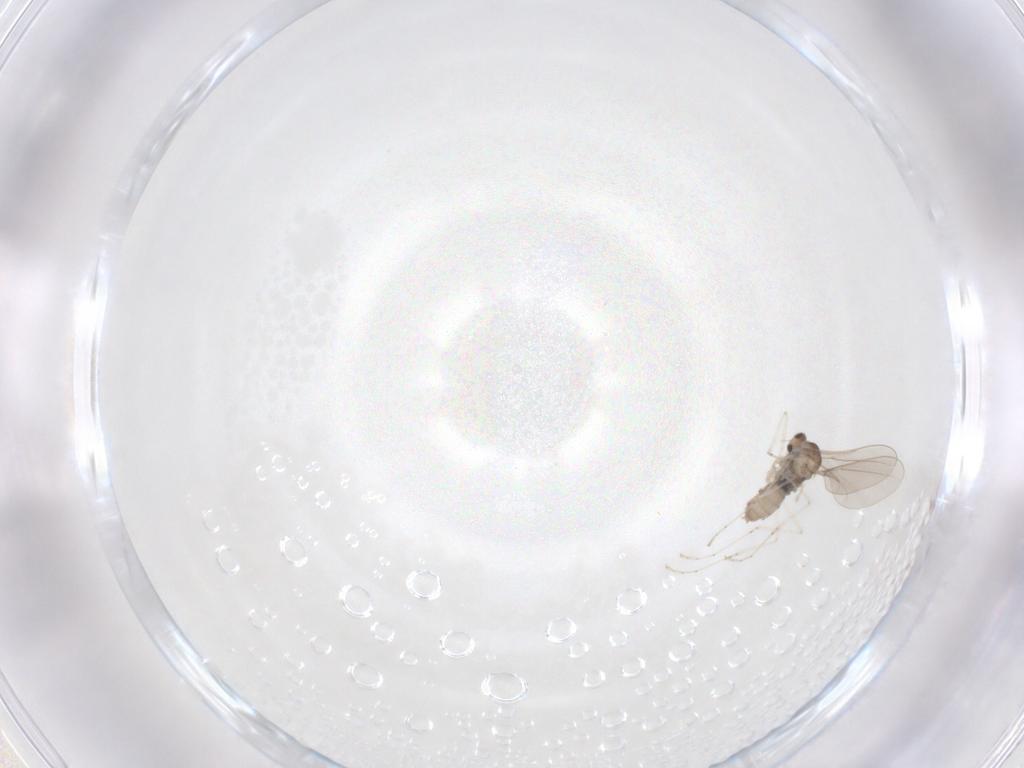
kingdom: Animalia
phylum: Arthropoda
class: Insecta
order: Diptera
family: Cecidomyiidae
